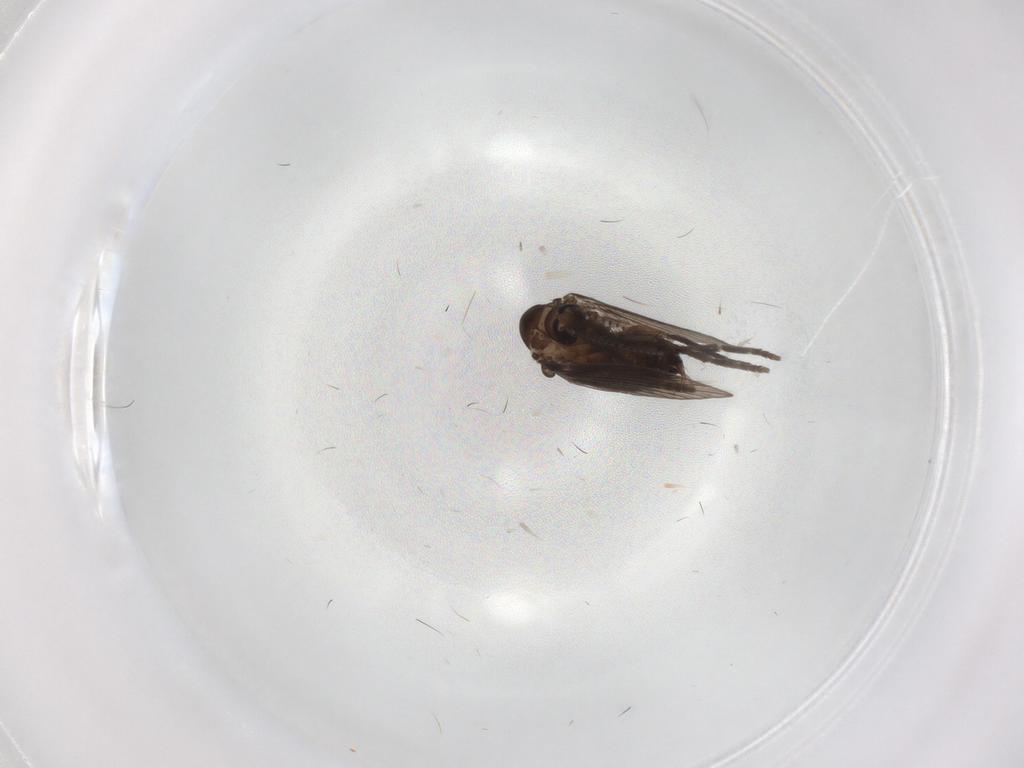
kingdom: Animalia
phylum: Arthropoda
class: Insecta
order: Diptera
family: Psychodidae
